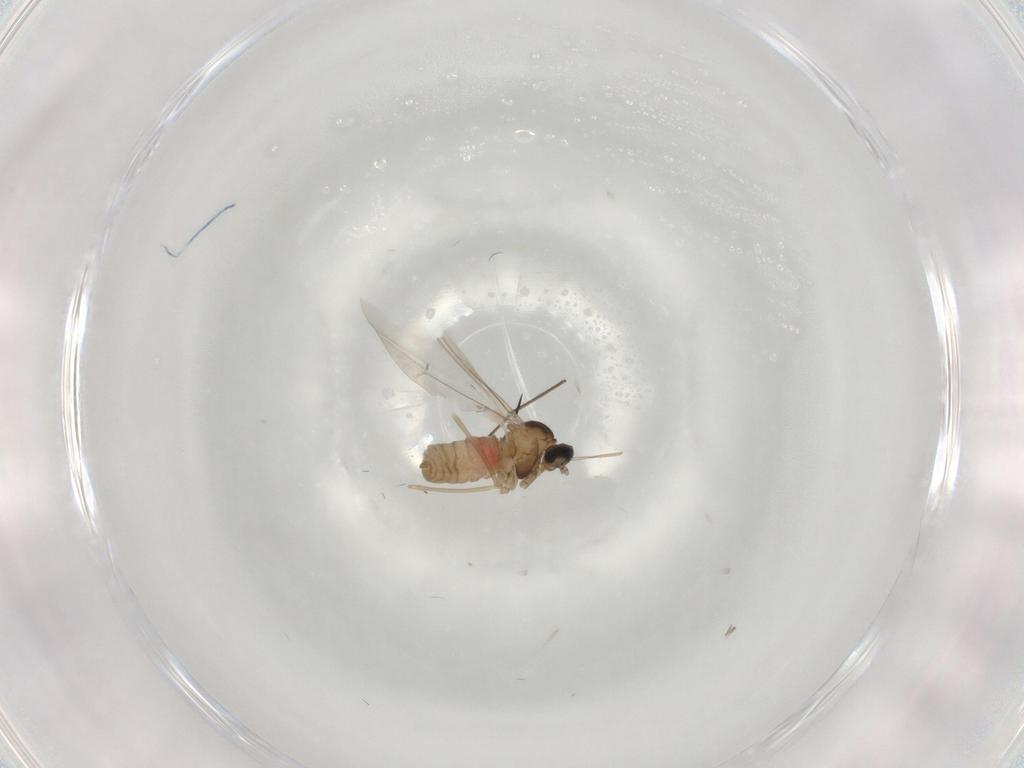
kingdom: Animalia
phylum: Arthropoda
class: Insecta
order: Diptera
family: Cecidomyiidae
